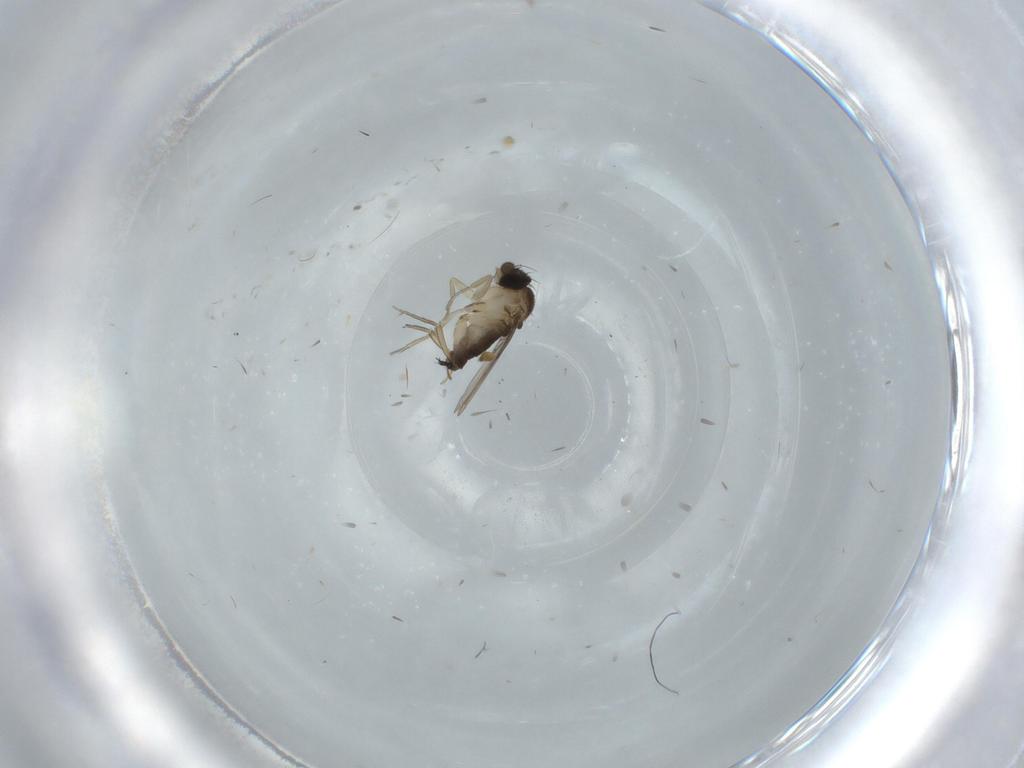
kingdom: Animalia
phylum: Arthropoda
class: Insecta
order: Diptera
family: Phoridae
